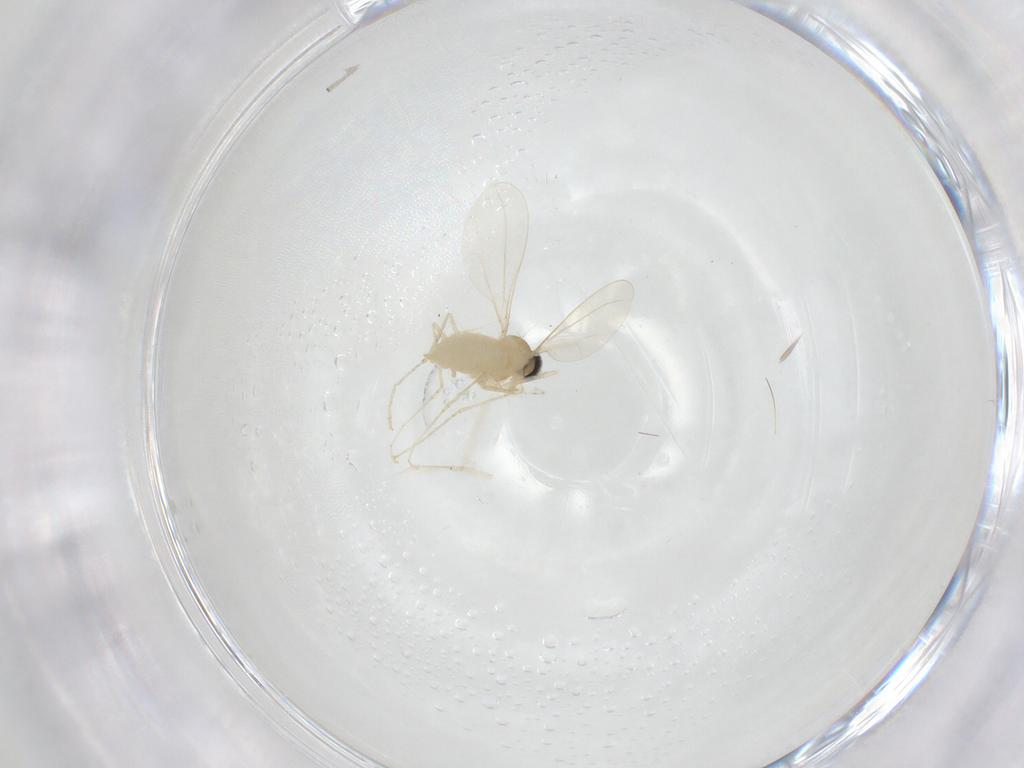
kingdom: Animalia
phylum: Arthropoda
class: Insecta
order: Diptera
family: Cecidomyiidae
